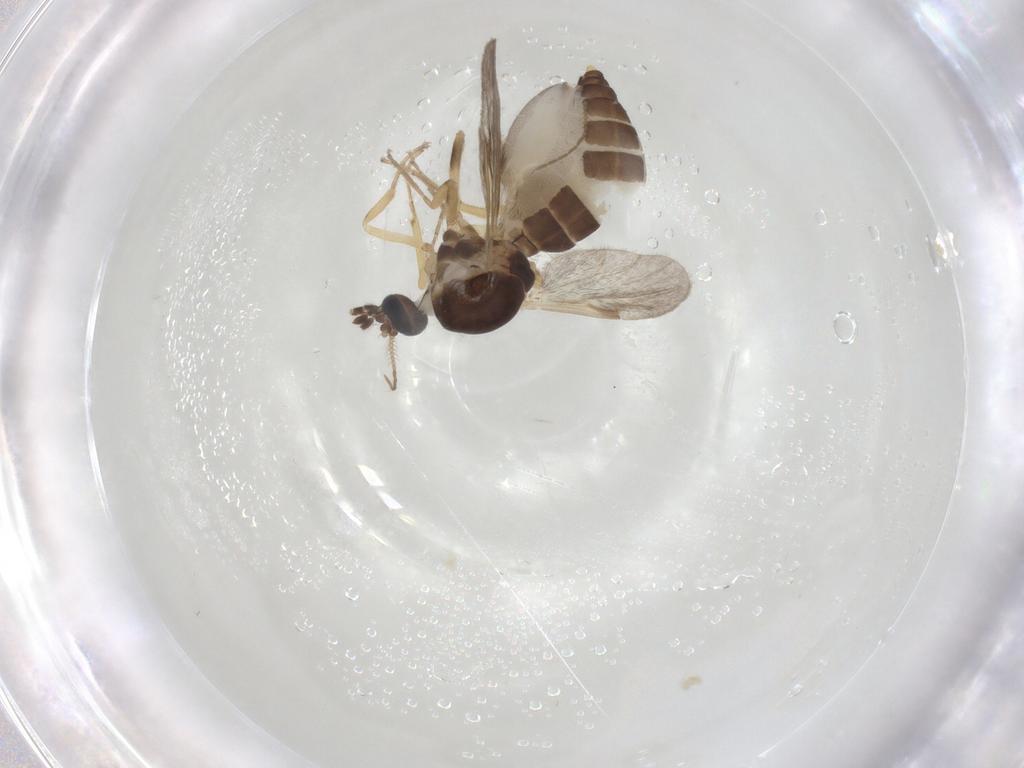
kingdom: Animalia
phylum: Arthropoda
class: Insecta
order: Diptera
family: Ceratopogonidae
